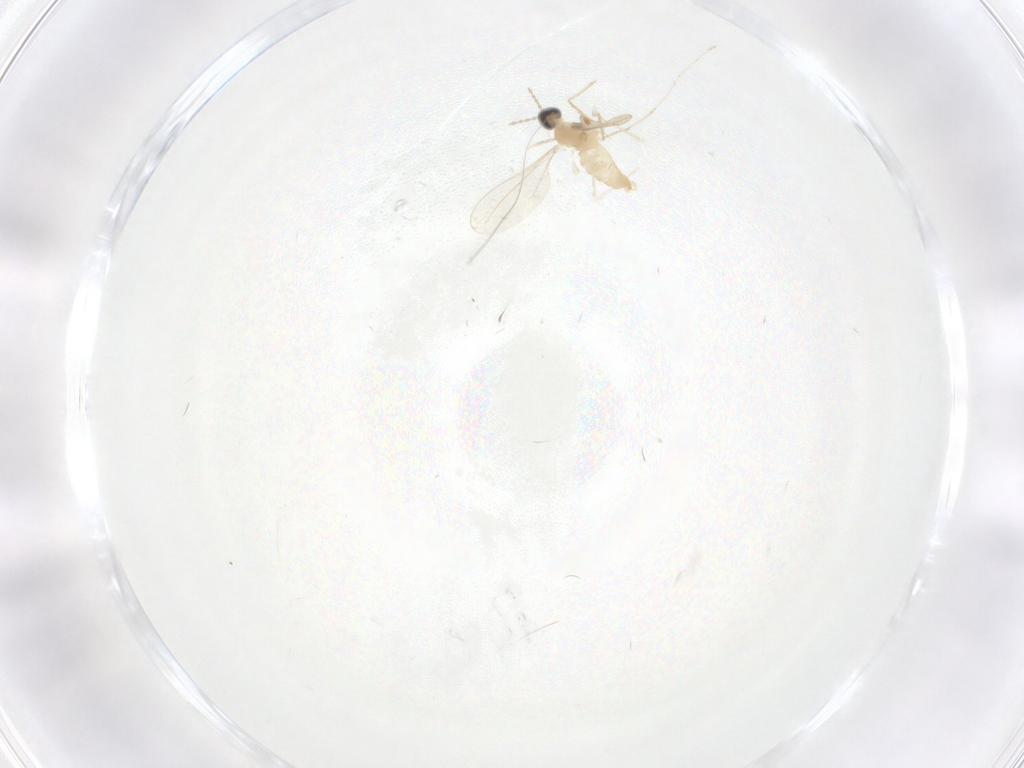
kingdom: Animalia
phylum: Arthropoda
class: Insecta
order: Diptera
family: Cecidomyiidae
